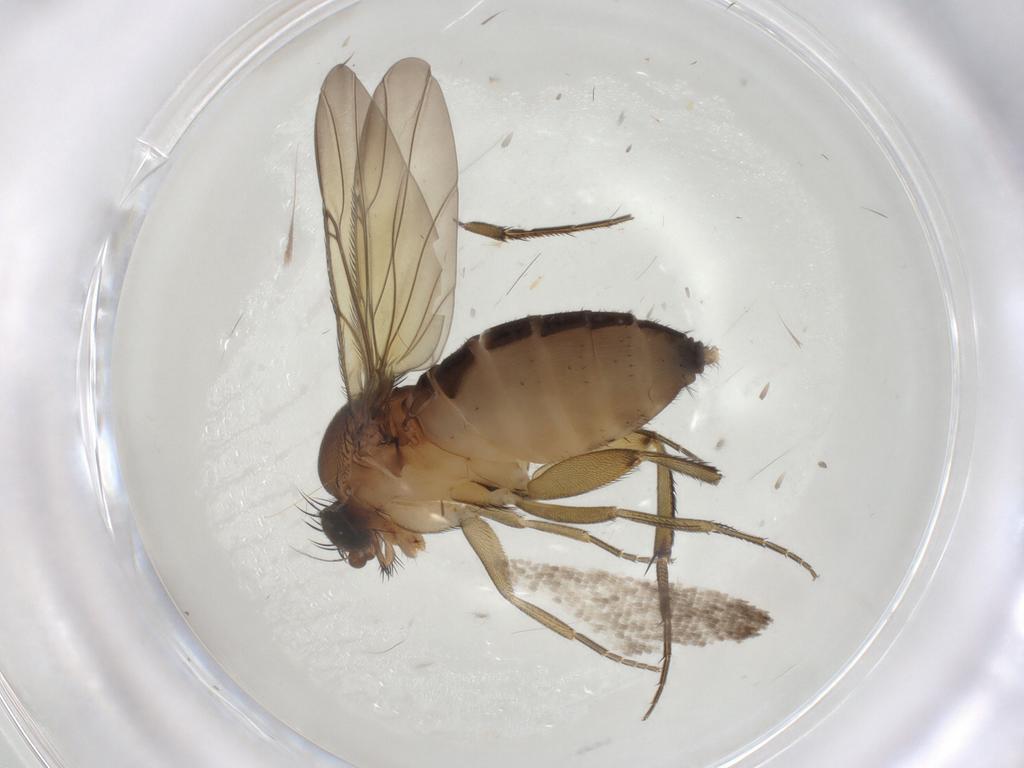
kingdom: Animalia
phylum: Arthropoda
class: Insecta
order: Diptera
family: Phoridae
